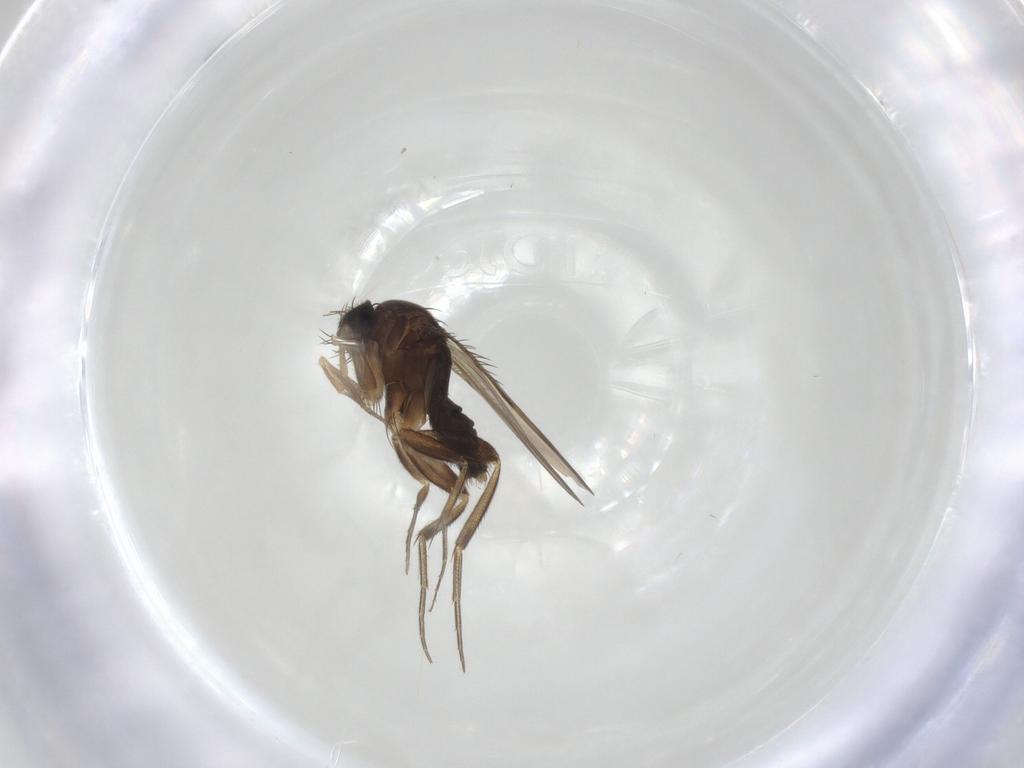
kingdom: Animalia
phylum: Arthropoda
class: Insecta
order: Diptera
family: Phoridae
